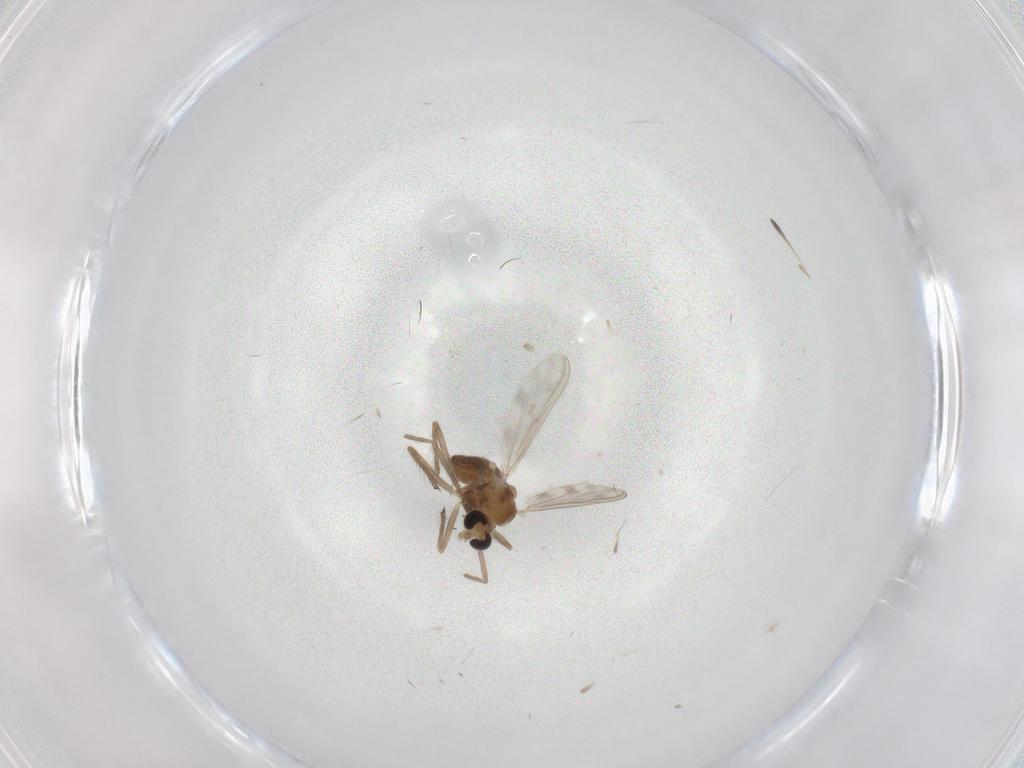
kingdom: Animalia
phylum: Arthropoda
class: Insecta
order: Diptera
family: Chironomidae
